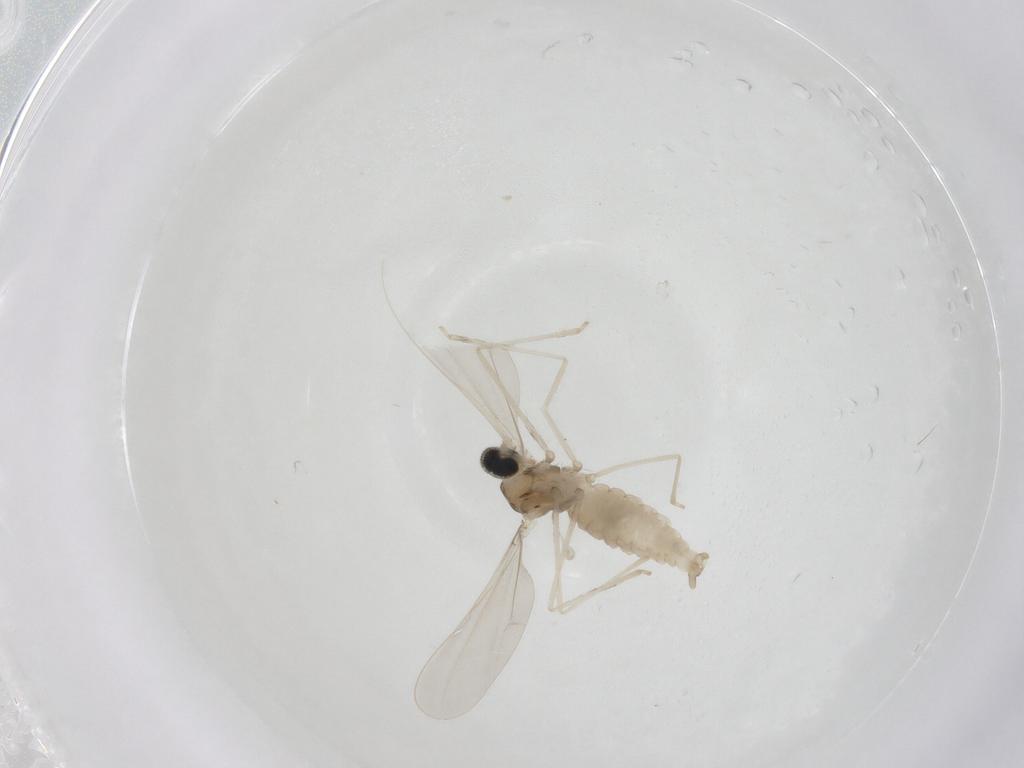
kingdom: Animalia
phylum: Arthropoda
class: Insecta
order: Diptera
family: Cecidomyiidae
